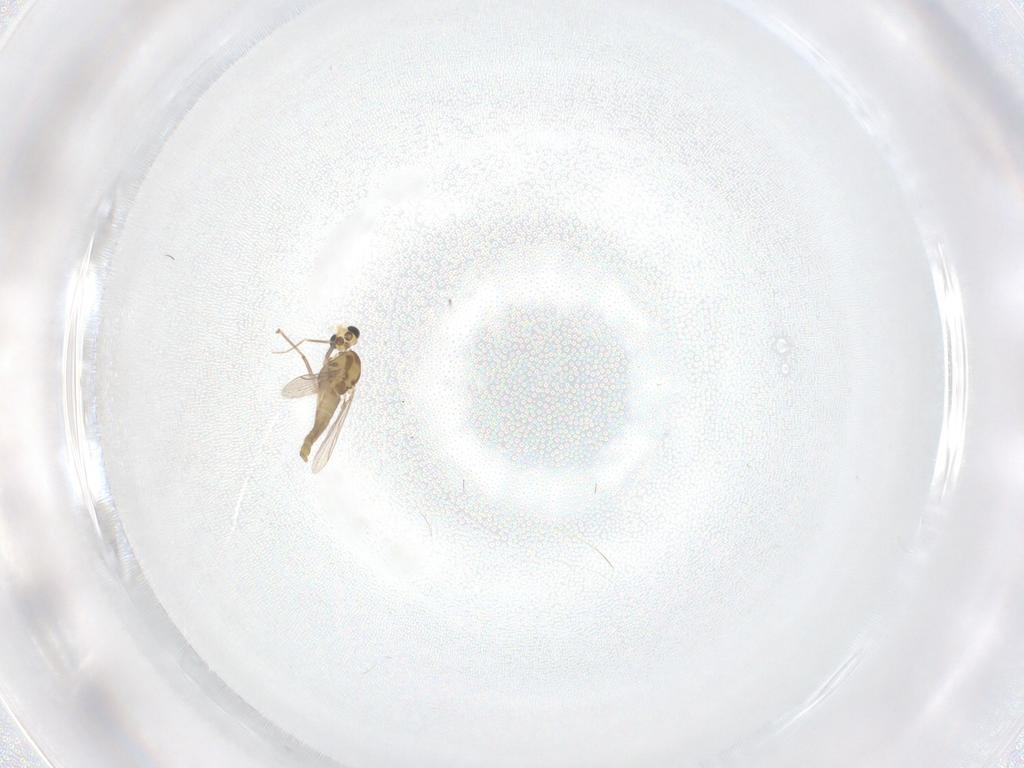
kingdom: Animalia
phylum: Arthropoda
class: Insecta
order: Diptera
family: Chironomidae
